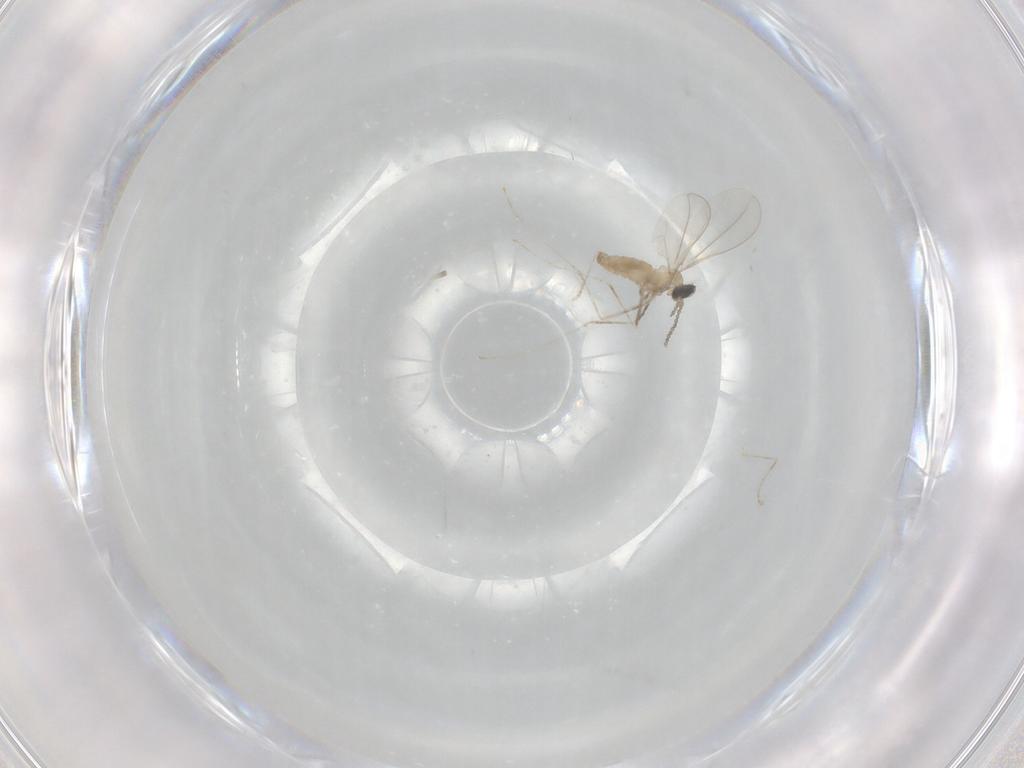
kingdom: Animalia
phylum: Arthropoda
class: Insecta
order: Diptera
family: Cecidomyiidae
